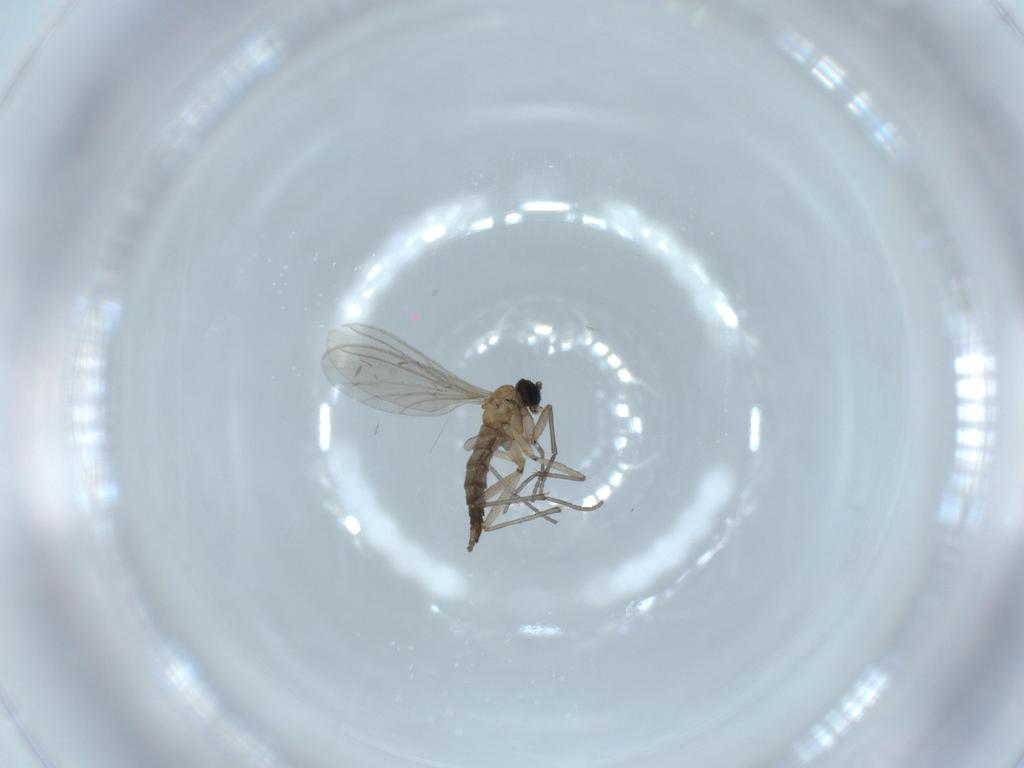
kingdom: Animalia
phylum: Arthropoda
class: Insecta
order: Diptera
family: Sciaridae
